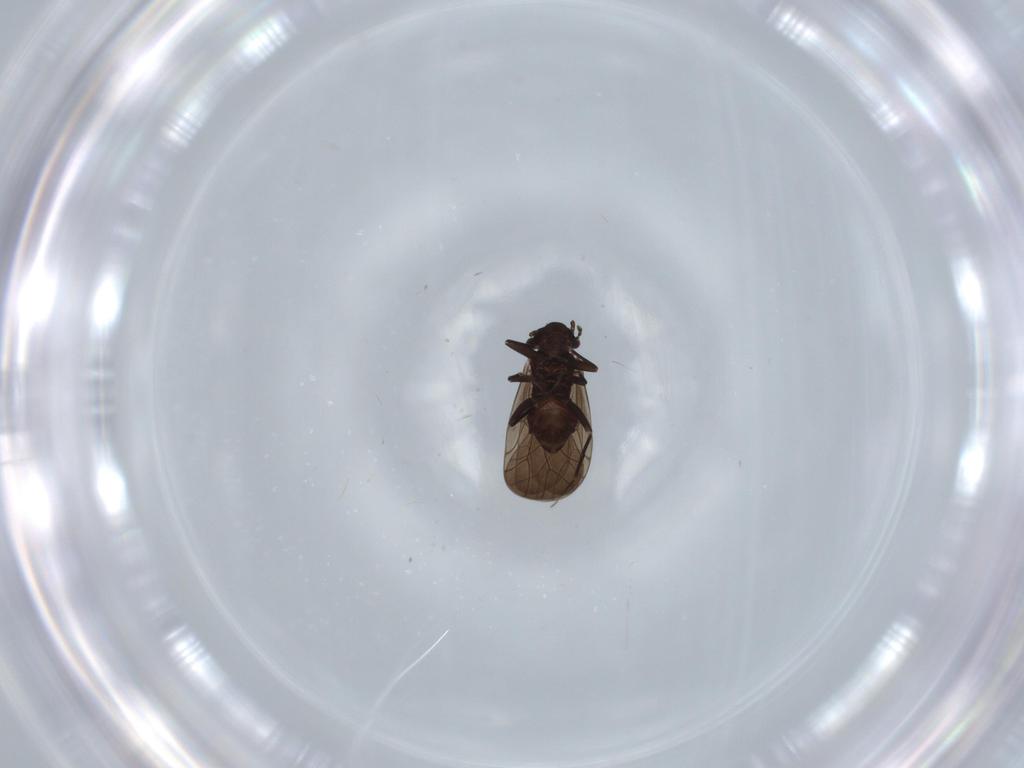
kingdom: Animalia
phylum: Arthropoda
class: Insecta
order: Psocodea
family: Lepidopsocidae
